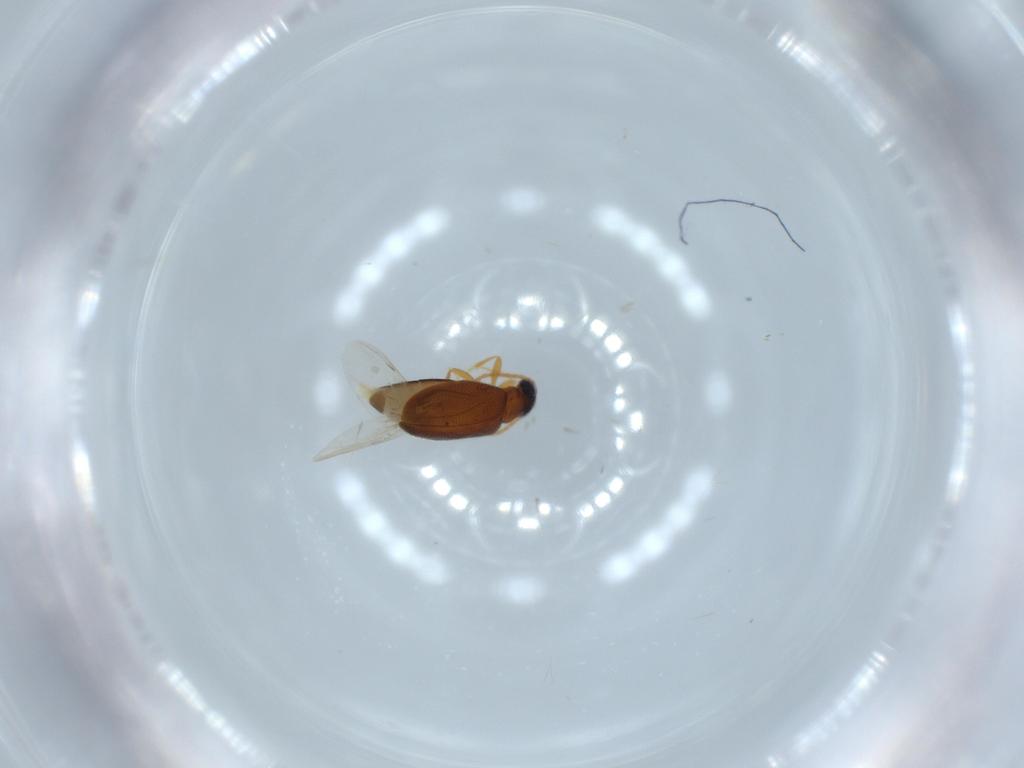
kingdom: Animalia
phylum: Arthropoda
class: Insecta
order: Coleoptera
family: Aderidae
